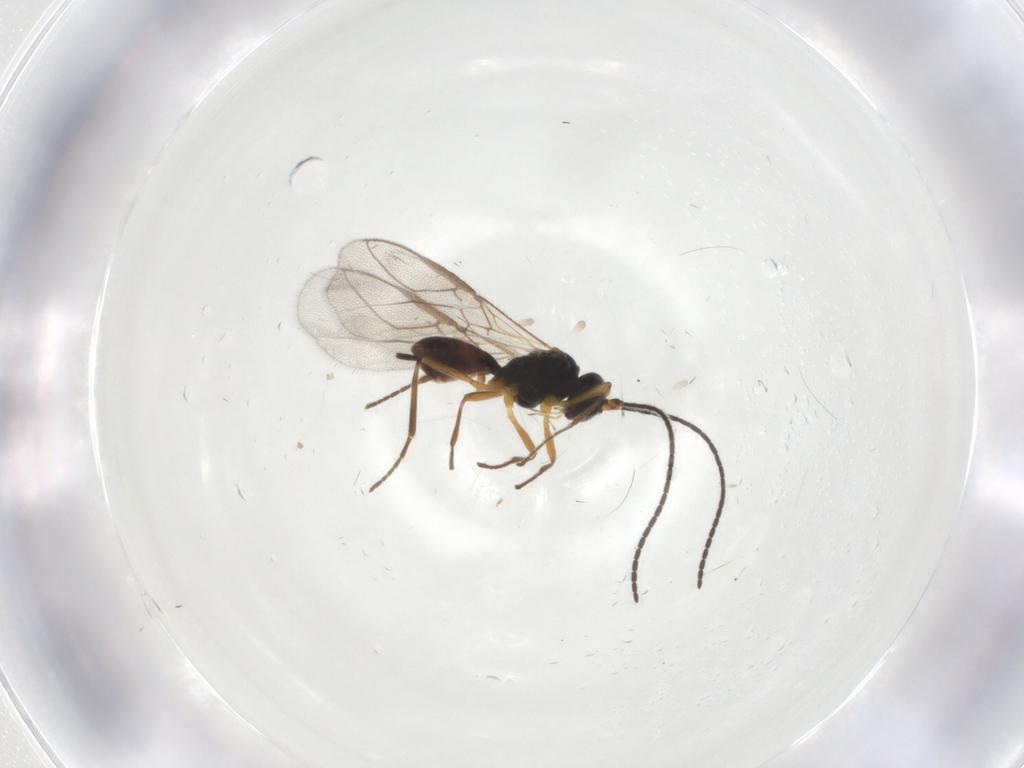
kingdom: Animalia
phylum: Arthropoda
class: Insecta
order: Hymenoptera
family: Braconidae
